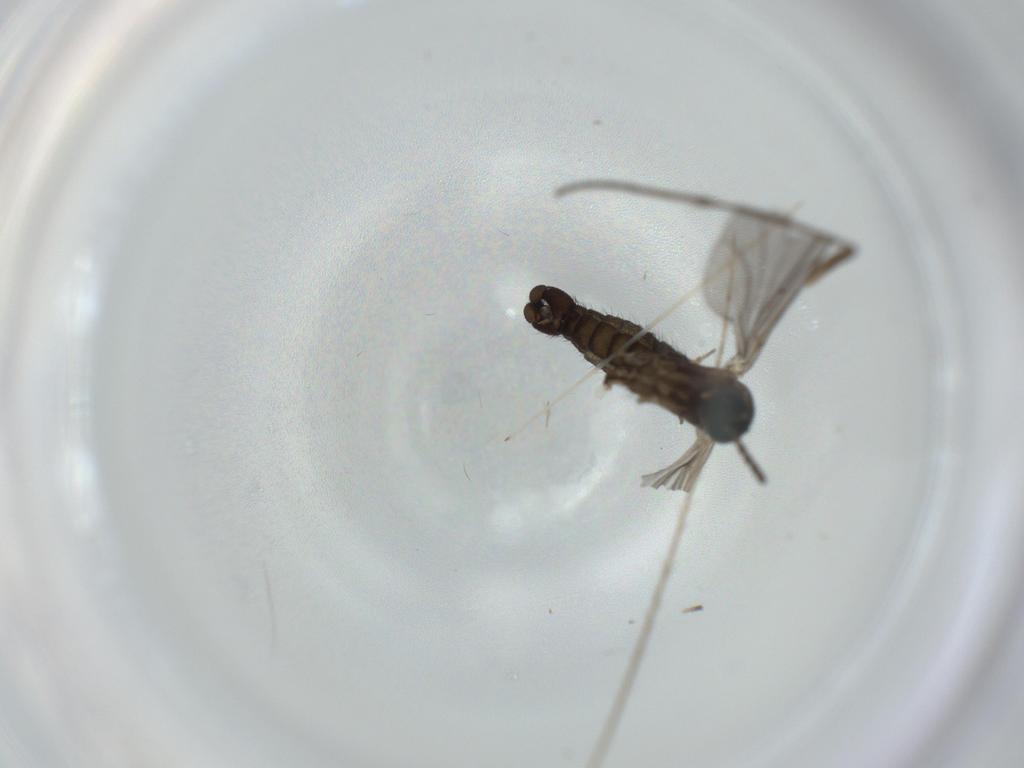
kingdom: Animalia
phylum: Arthropoda
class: Insecta
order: Diptera
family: Sciaridae
